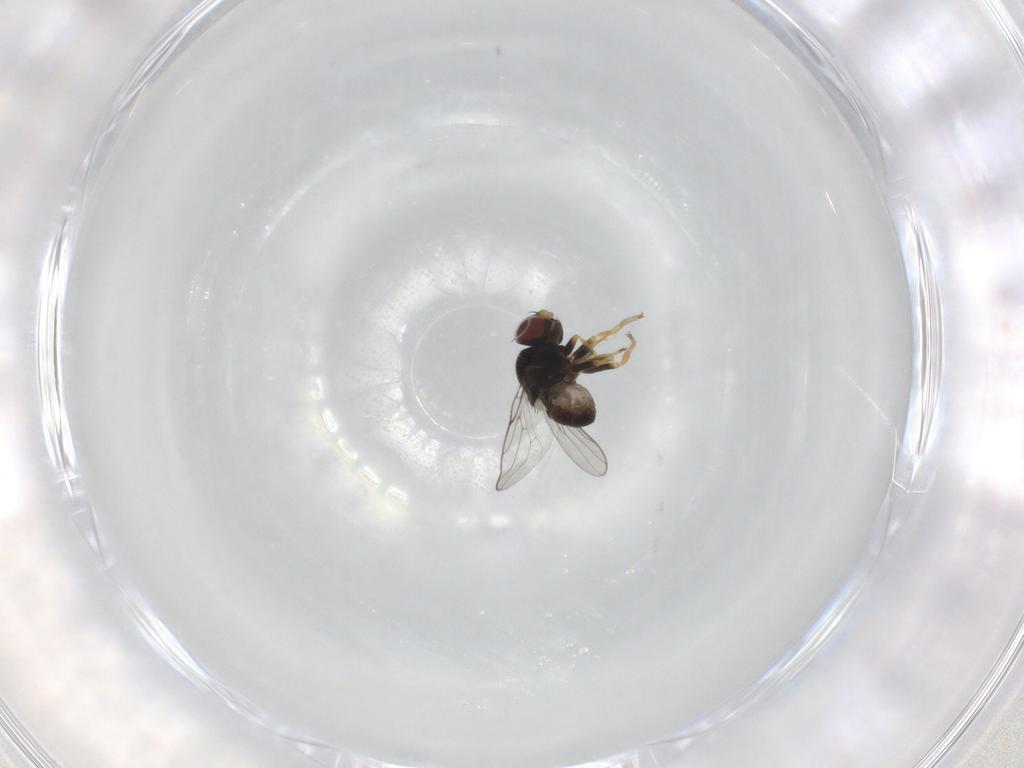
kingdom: Animalia
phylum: Arthropoda
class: Insecta
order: Diptera
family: Chloropidae
